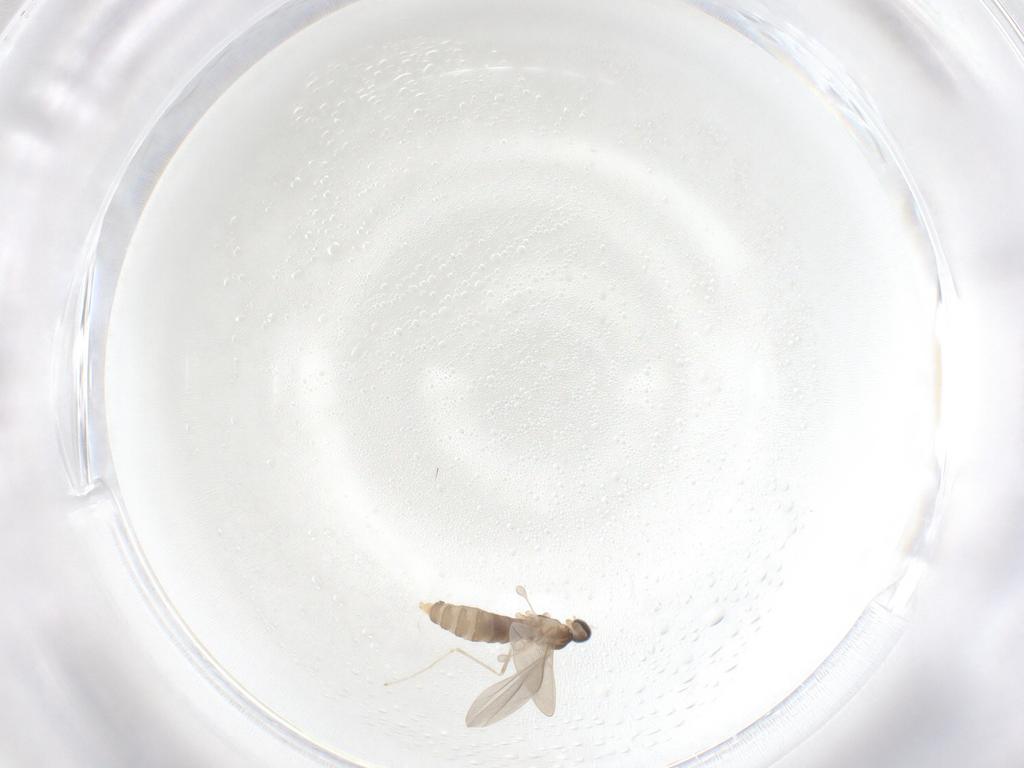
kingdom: Animalia
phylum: Arthropoda
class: Insecta
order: Diptera
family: Cecidomyiidae
